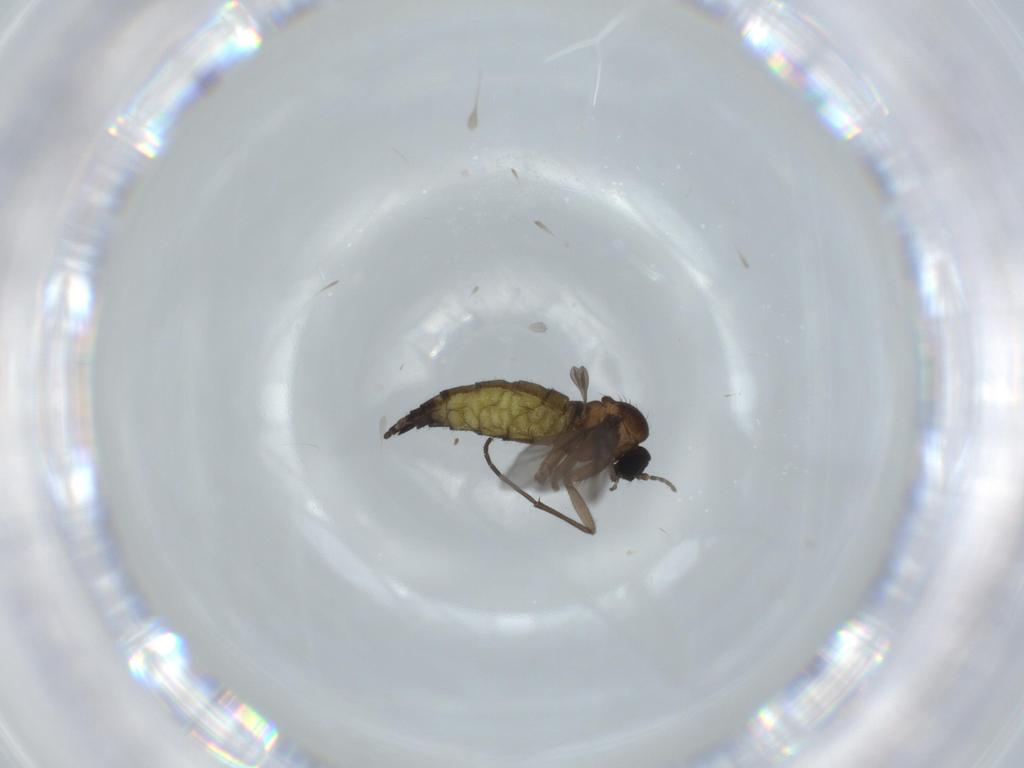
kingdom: Animalia
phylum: Arthropoda
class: Insecta
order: Diptera
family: Sciaridae
